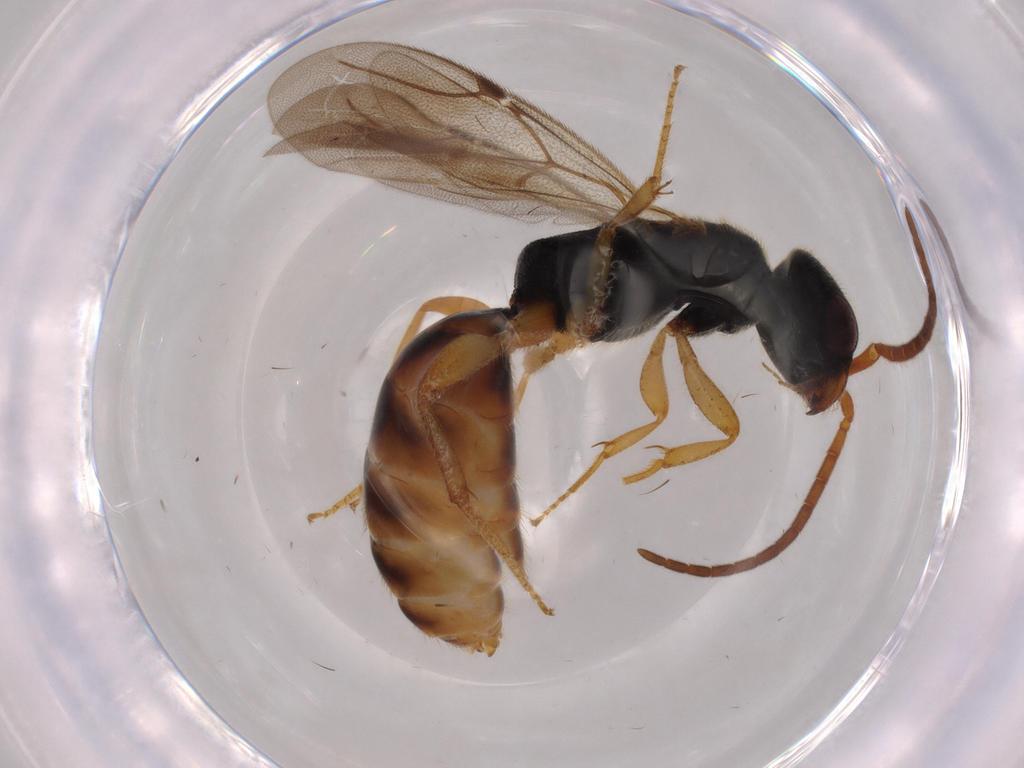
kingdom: Animalia
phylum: Arthropoda
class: Insecta
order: Hymenoptera
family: Bethylidae
